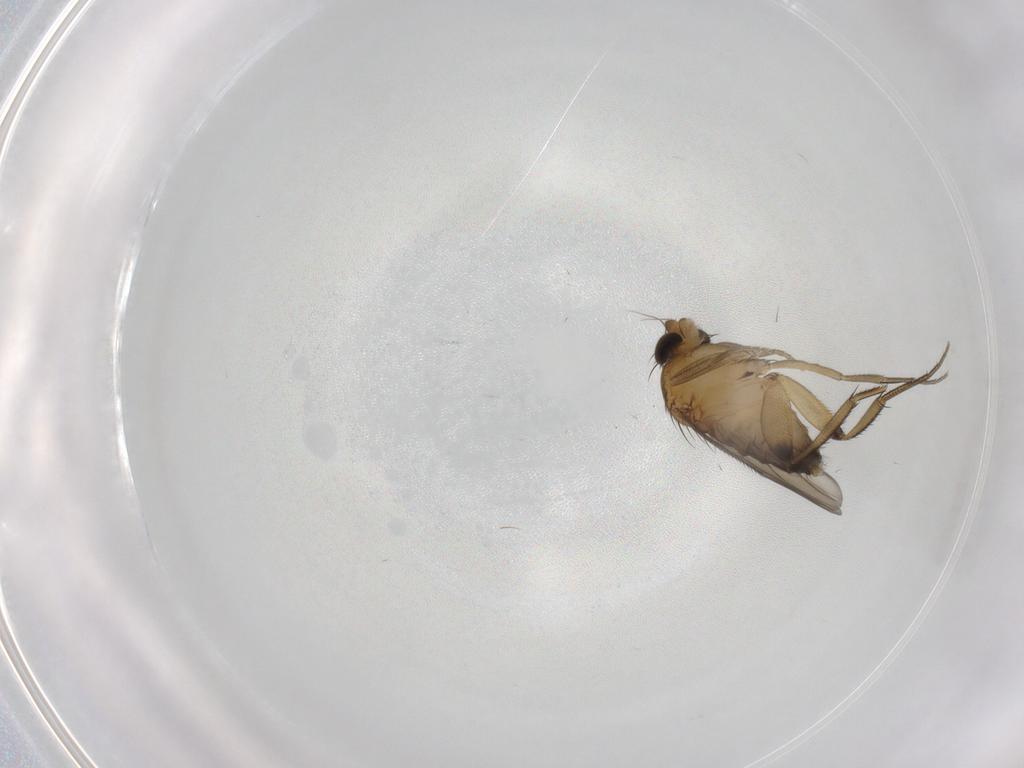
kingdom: Animalia
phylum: Arthropoda
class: Insecta
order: Diptera
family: Phoridae
